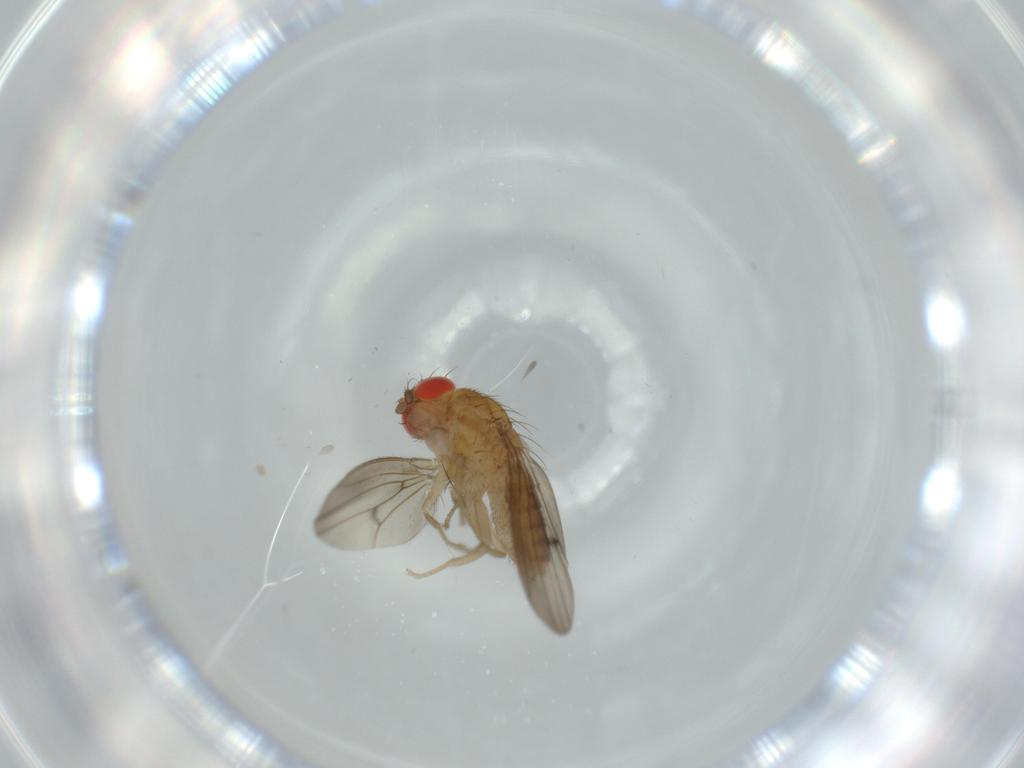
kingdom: Animalia
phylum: Arthropoda
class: Insecta
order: Diptera
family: Drosophilidae
